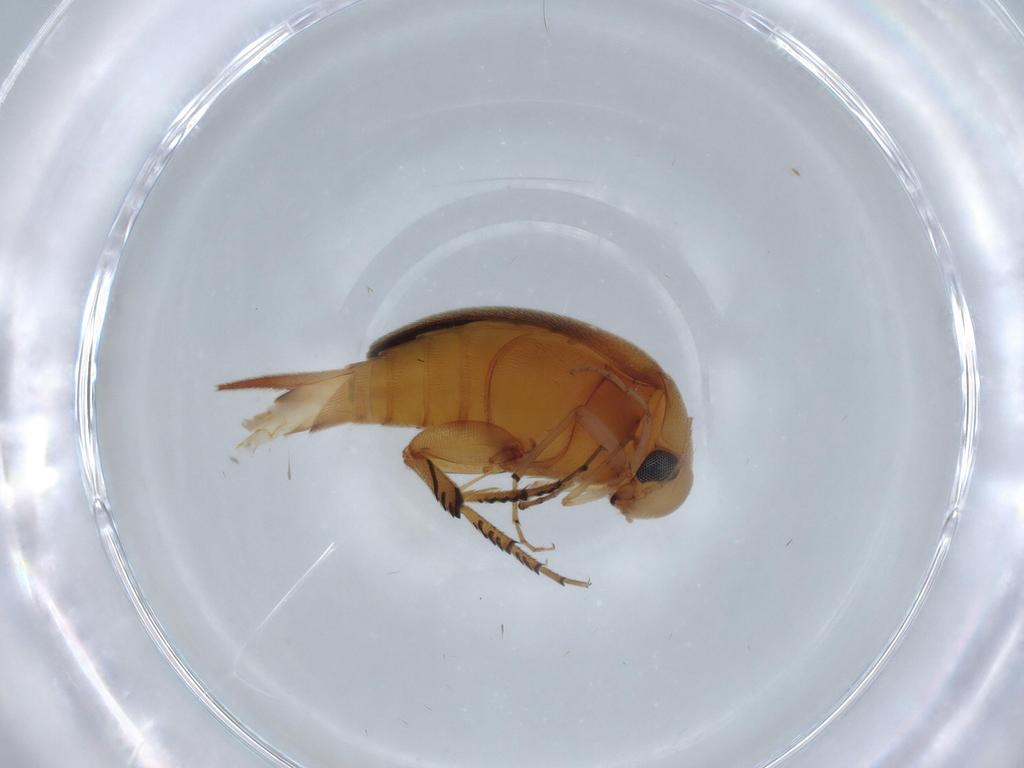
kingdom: Animalia
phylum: Arthropoda
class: Insecta
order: Coleoptera
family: Mordellidae
